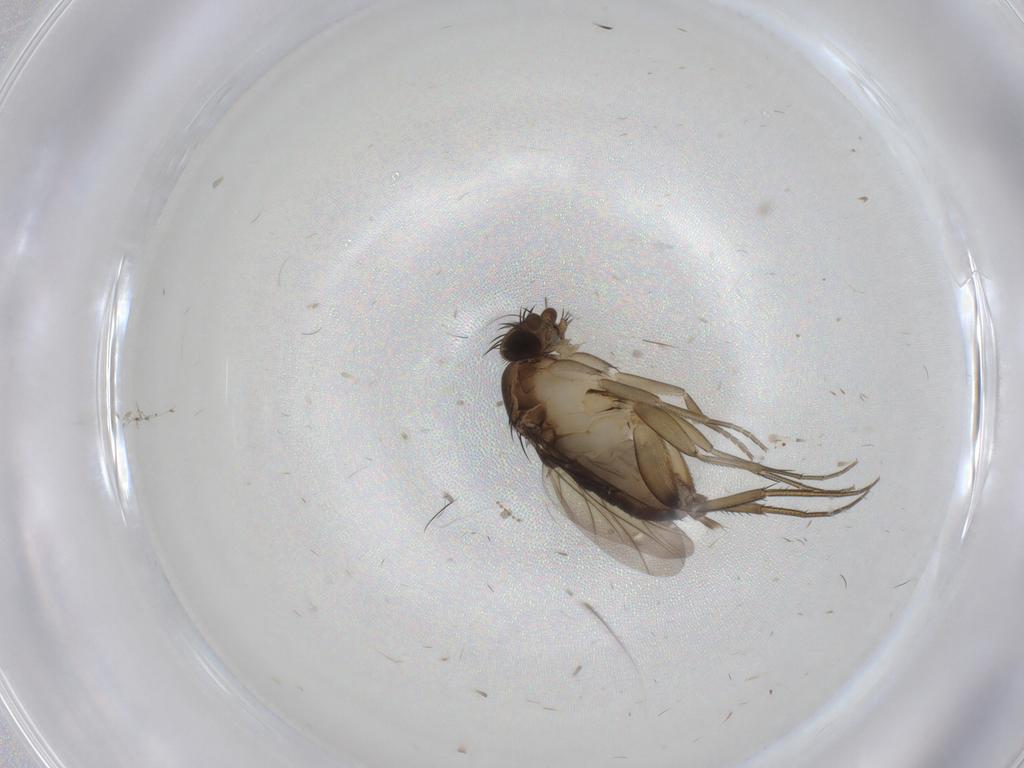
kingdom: Animalia
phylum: Arthropoda
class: Insecta
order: Diptera
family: Phoridae
